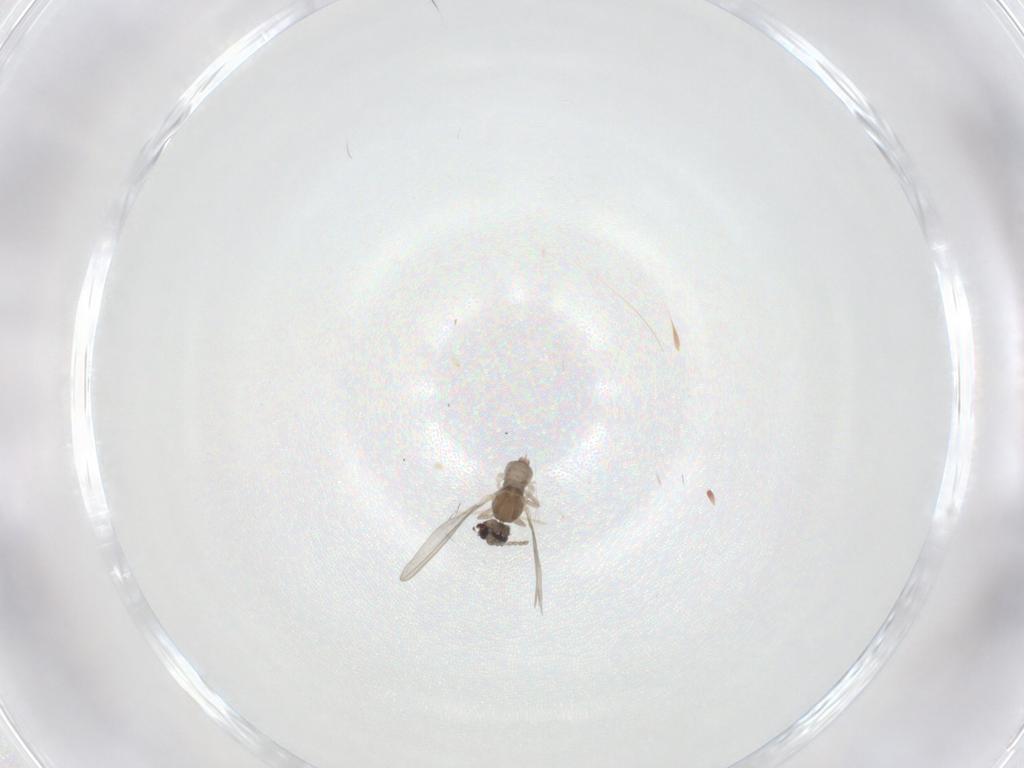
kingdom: Animalia
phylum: Arthropoda
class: Insecta
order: Diptera
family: Cecidomyiidae
